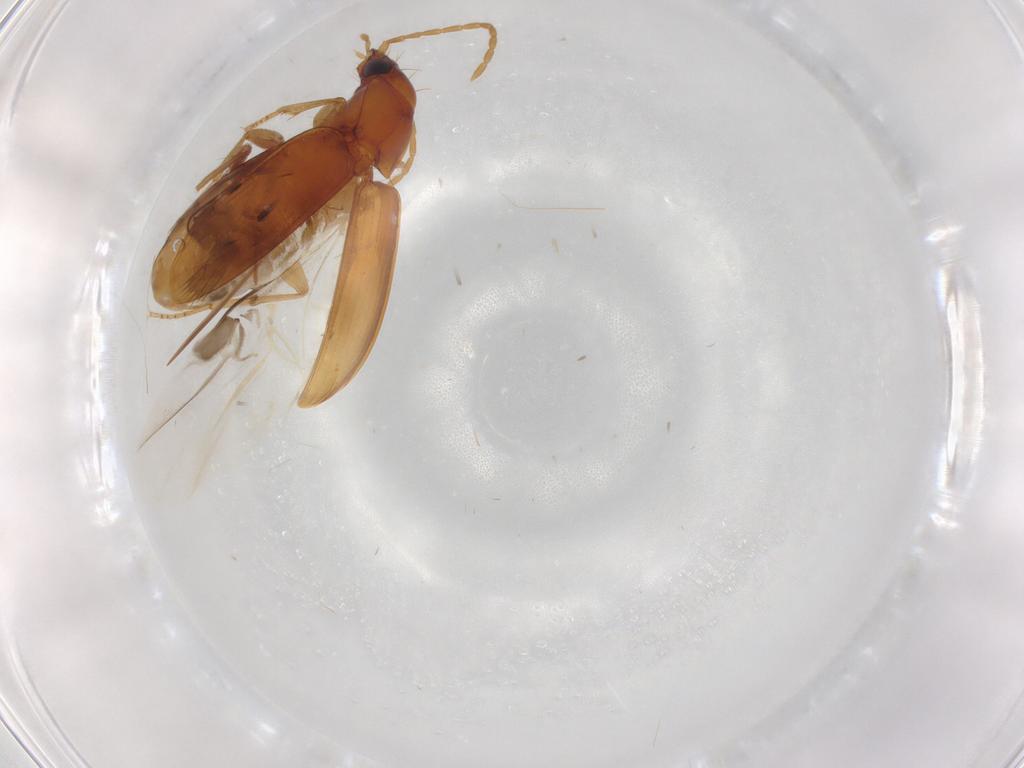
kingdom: Animalia
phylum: Arthropoda
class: Insecta
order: Coleoptera
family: Carabidae
